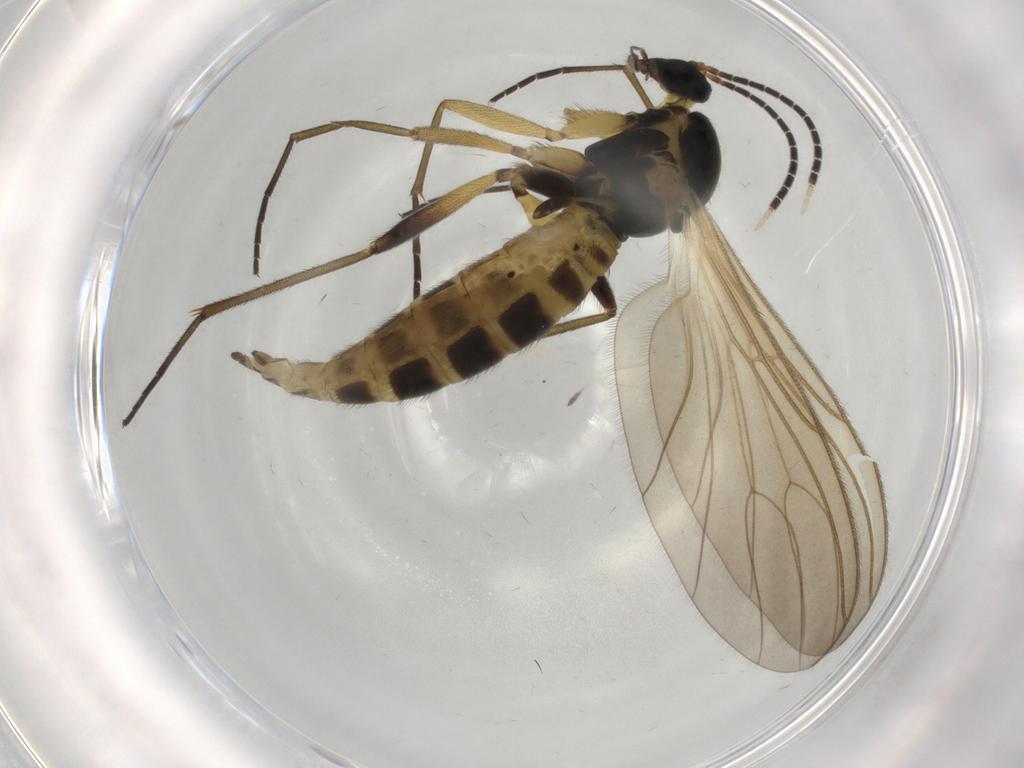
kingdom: Animalia
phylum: Arthropoda
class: Insecta
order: Diptera
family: Sciaridae
